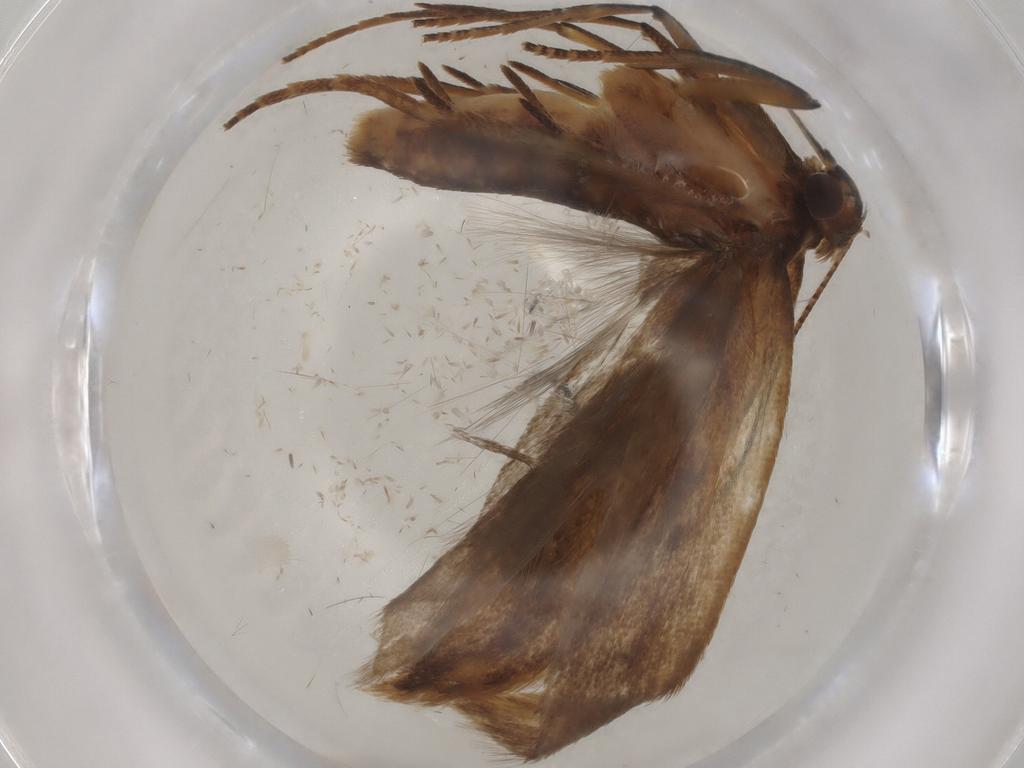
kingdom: Animalia
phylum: Arthropoda
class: Insecta
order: Lepidoptera
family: Gelechiidae
